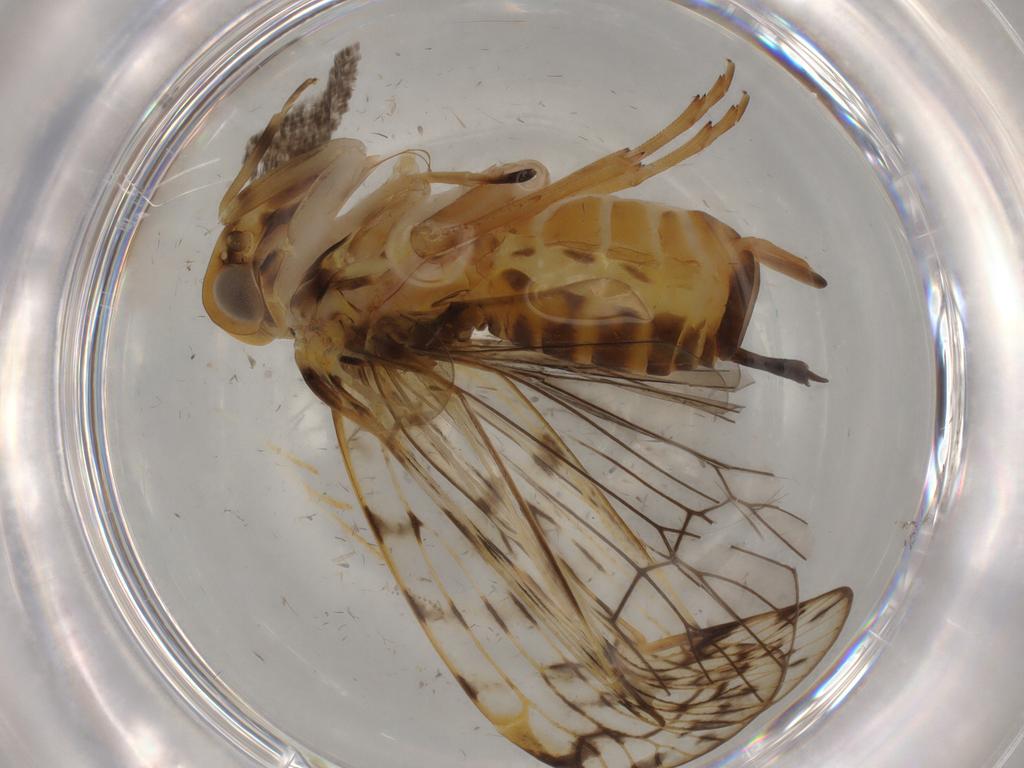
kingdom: Animalia
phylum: Arthropoda
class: Insecta
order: Hemiptera
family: Cixiidae
